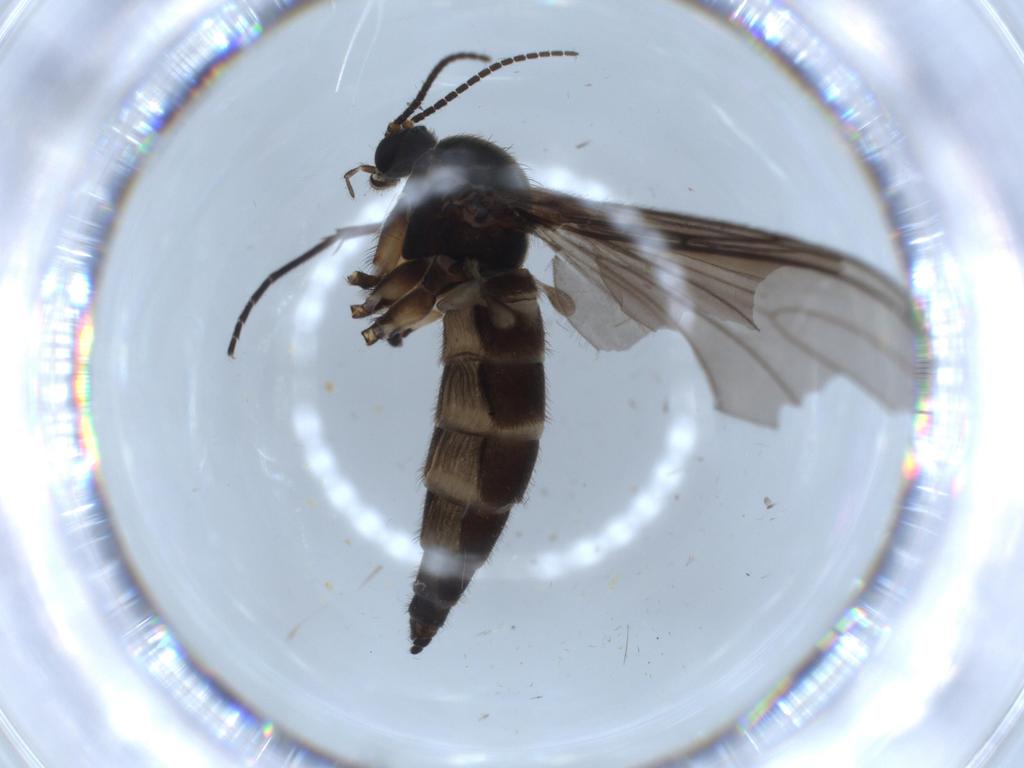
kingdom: Animalia
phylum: Arthropoda
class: Insecta
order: Diptera
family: Sciaridae
